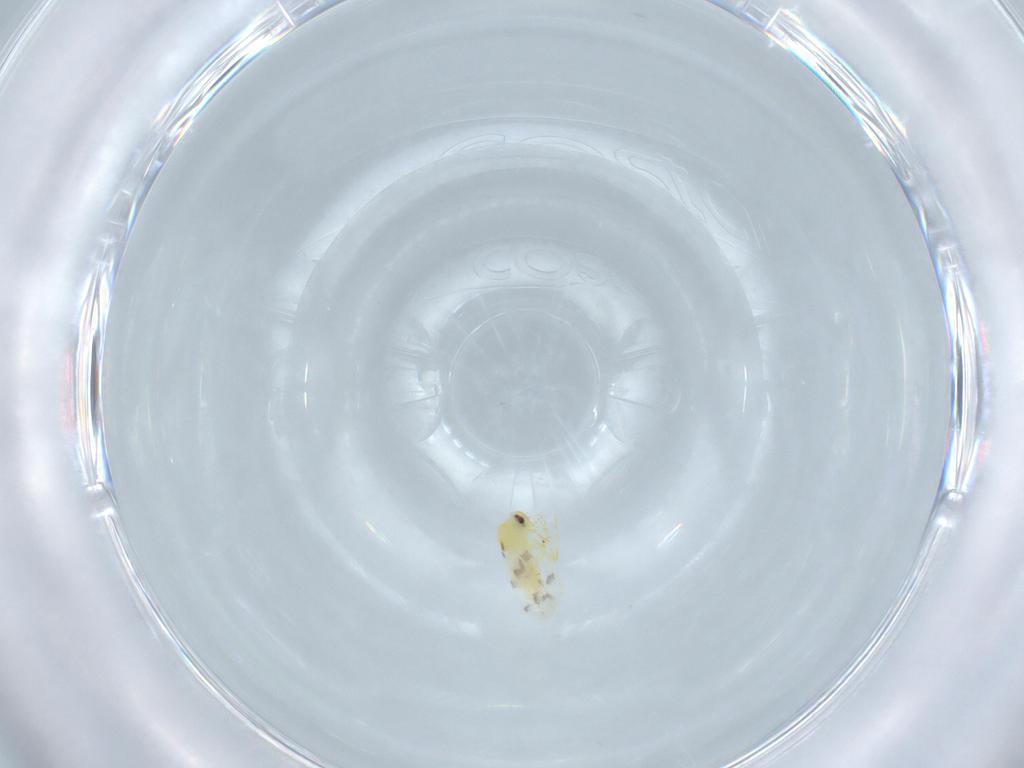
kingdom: Animalia
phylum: Arthropoda
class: Insecta
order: Hemiptera
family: Aleyrodidae
